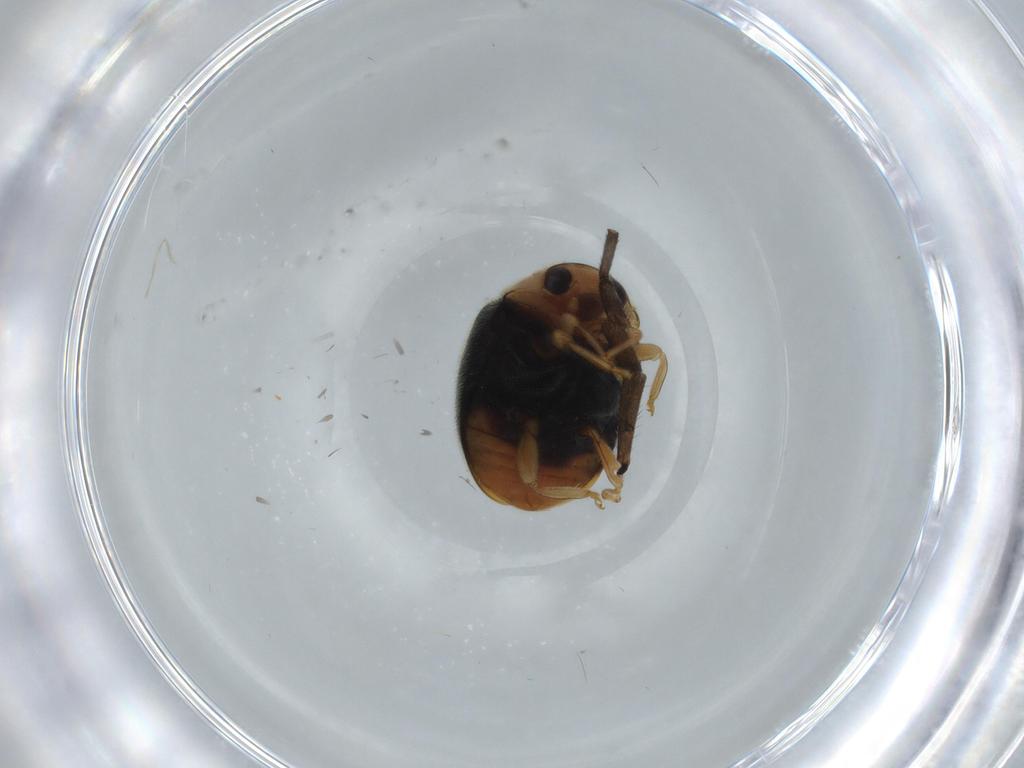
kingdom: Animalia
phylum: Arthropoda
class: Insecta
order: Coleoptera
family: Coccinellidae
